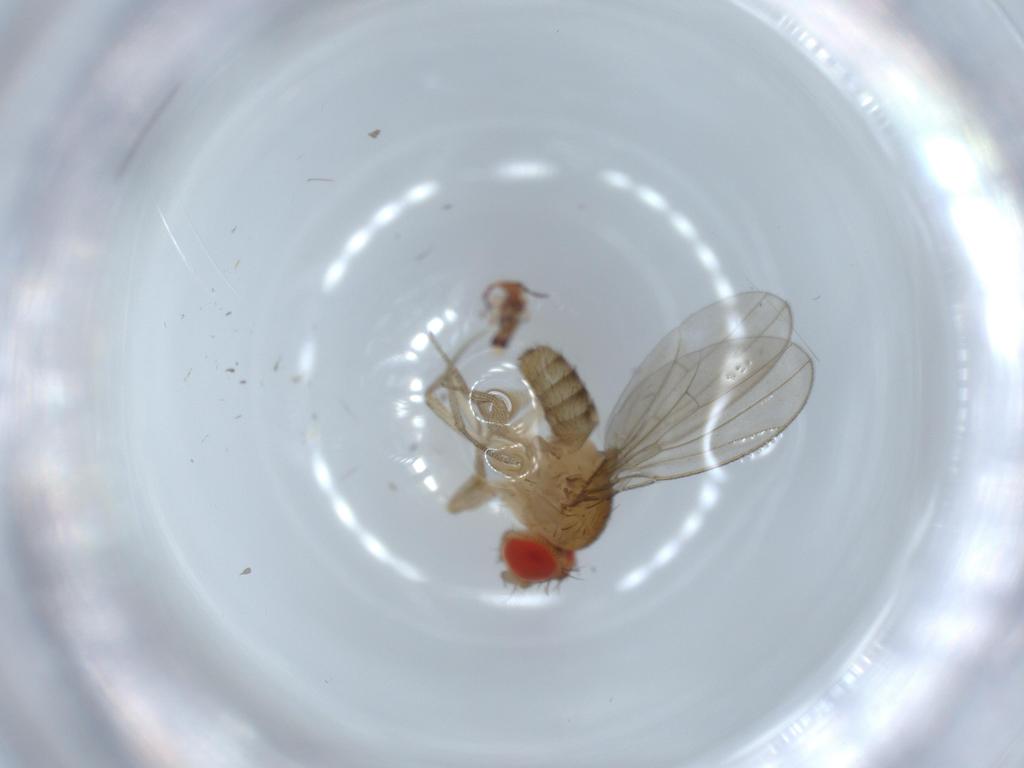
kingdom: Animalia
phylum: Arthropoda
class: Insecta
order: Diptera
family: Drosophilidae
